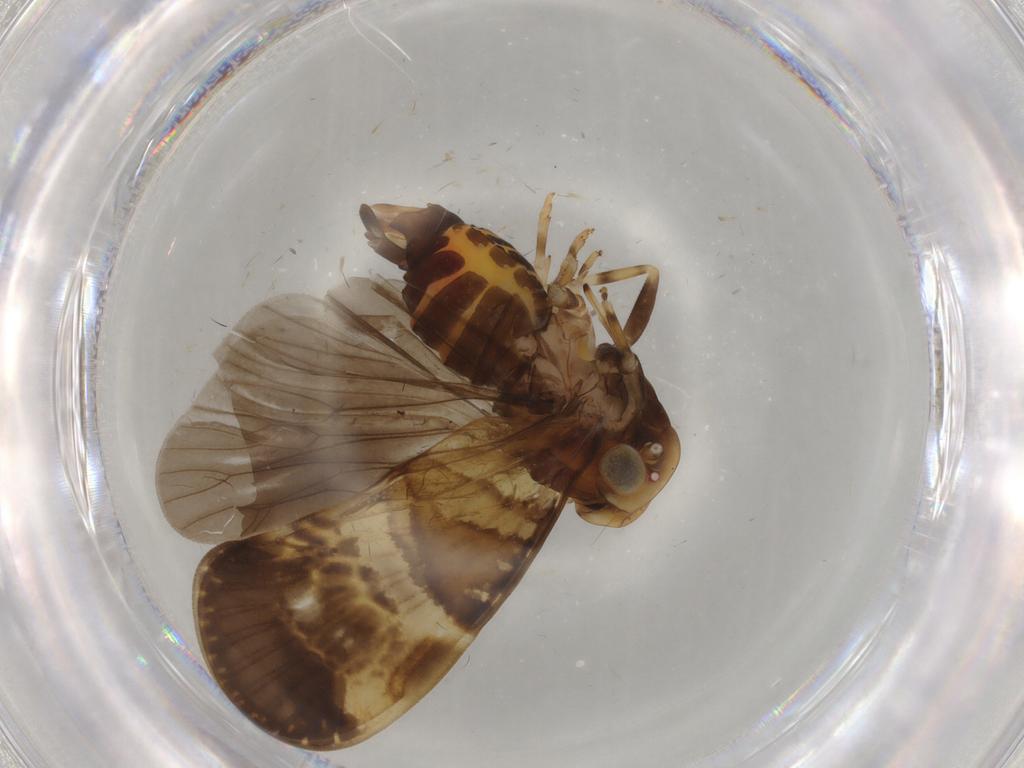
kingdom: Animalia
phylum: Arthropoda
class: Insecta
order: Hemiptera
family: Cixiidae
